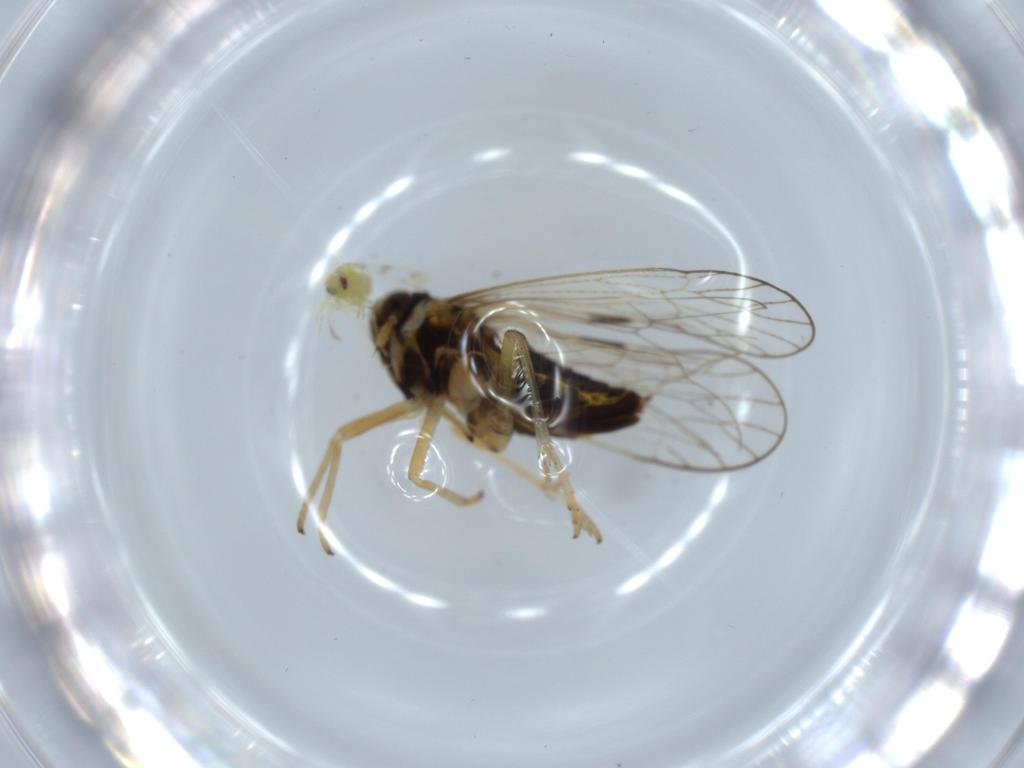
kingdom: Animalia
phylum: Arthropoda
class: Insecta
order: Hemiptera
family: Aleyrodidae
